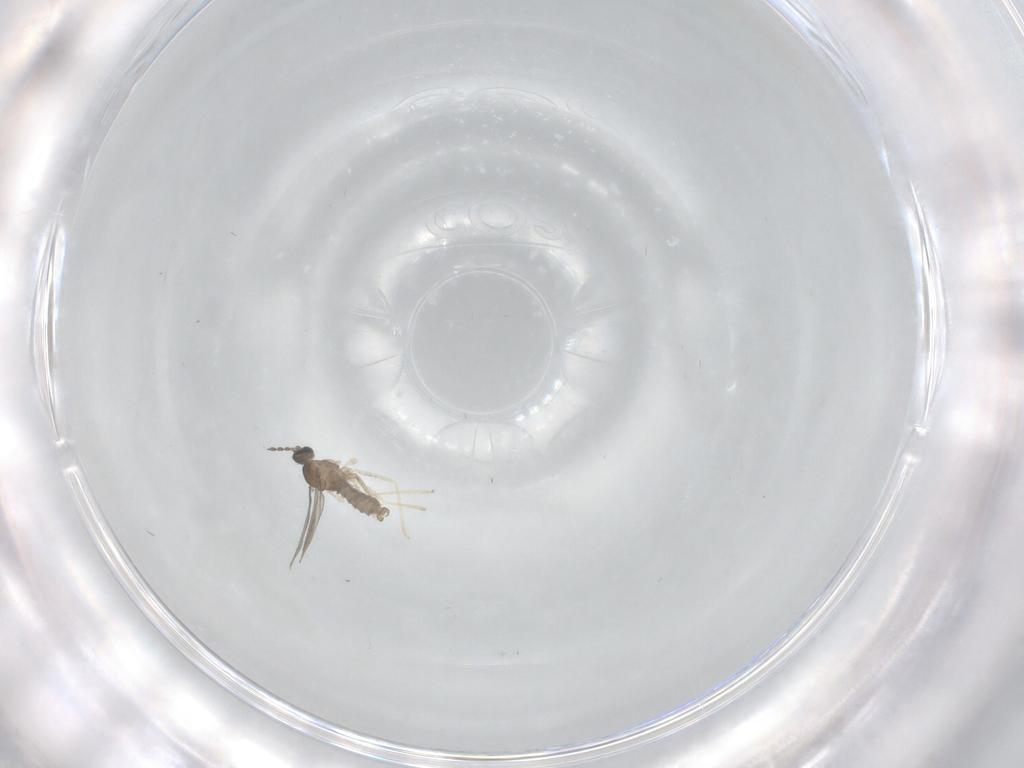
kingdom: Animalia
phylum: Arthropoda
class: Insecta
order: Diptera
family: Chironomidae
